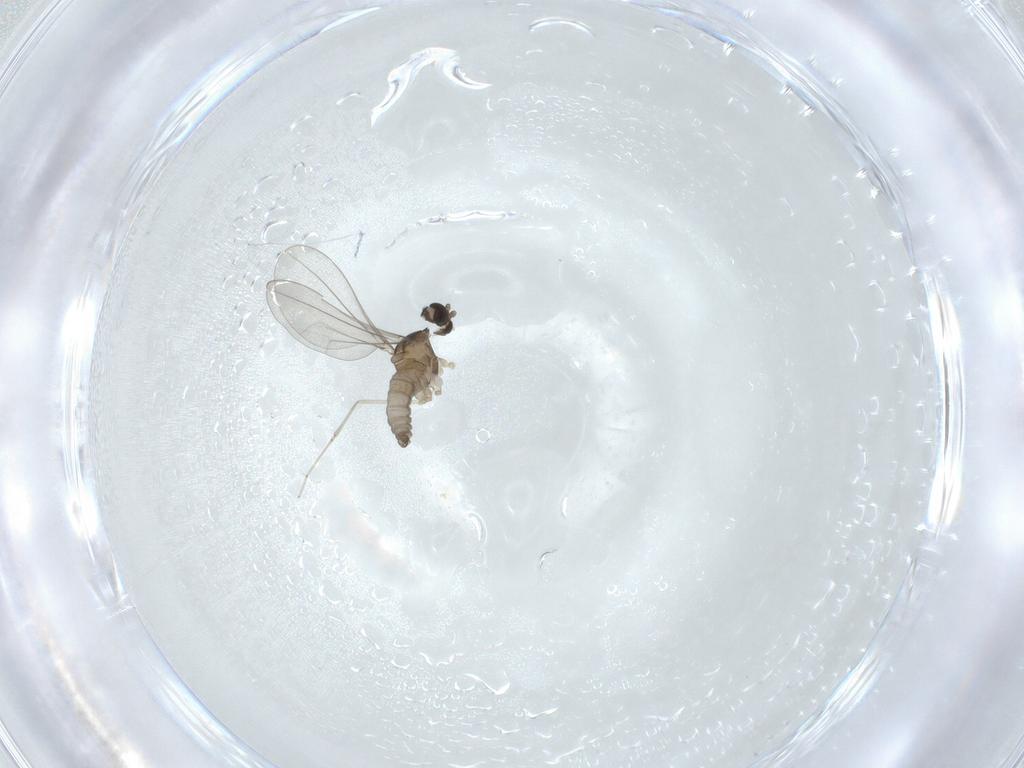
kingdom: Animalia
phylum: Arthropoda
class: Insecta
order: Diptera
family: Cecidomyiidae
